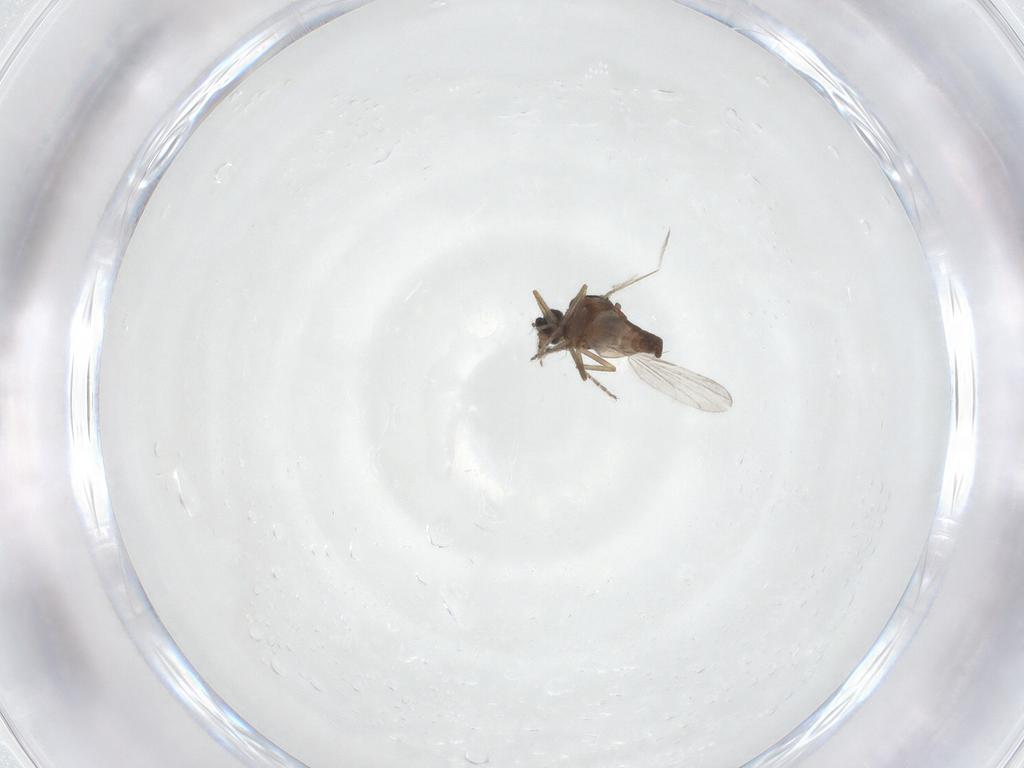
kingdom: Animalia
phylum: Arthropoda
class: Insecta
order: Diptera
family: Ceratopogonidae
